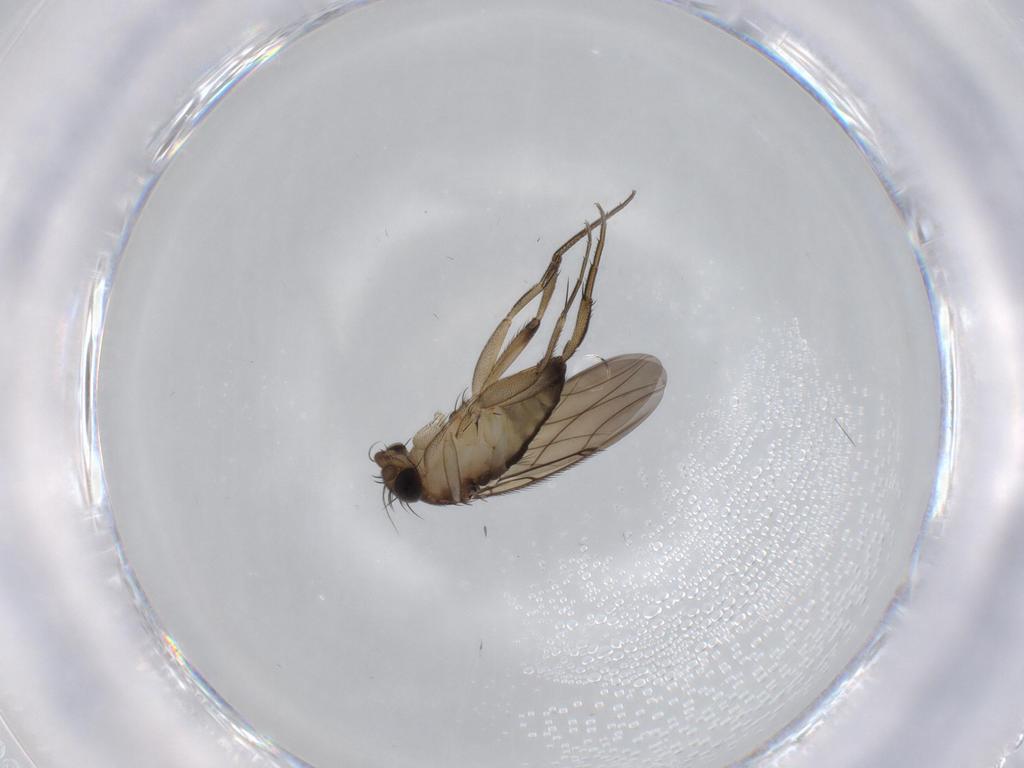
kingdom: Animalia
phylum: Arthropoda
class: Insecta
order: Diptera
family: Phoridae
